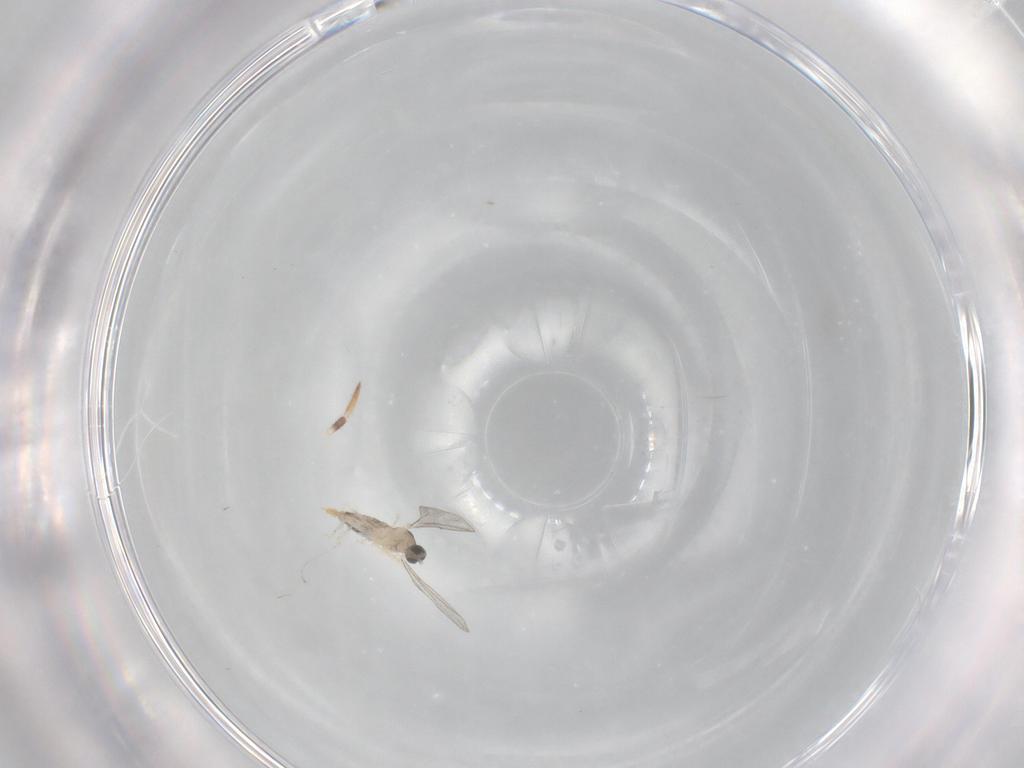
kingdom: Animalia
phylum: Arthropoda
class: Insecta
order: Diptera
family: Cecidomyiidae
